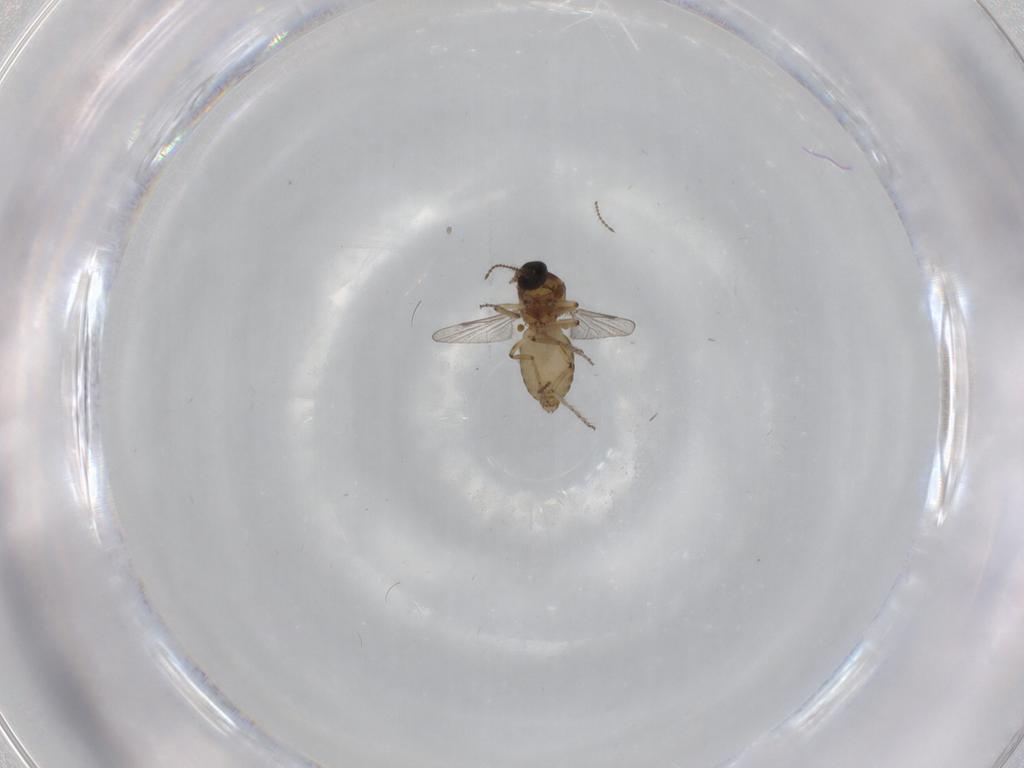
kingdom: Animalia
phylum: Arthropoda
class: Insecta
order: Diptera
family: Ceratopogonidae
